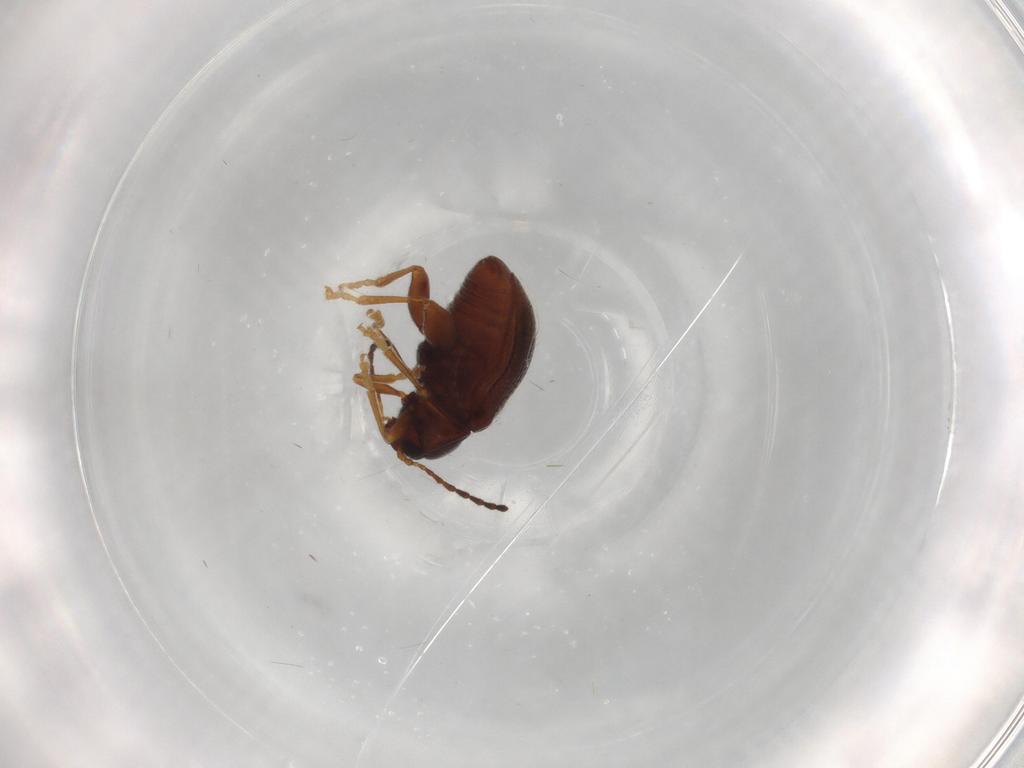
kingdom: Animalia
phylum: Arthropoda
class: Insecta
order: Coleoptera
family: Chrysomelidae
